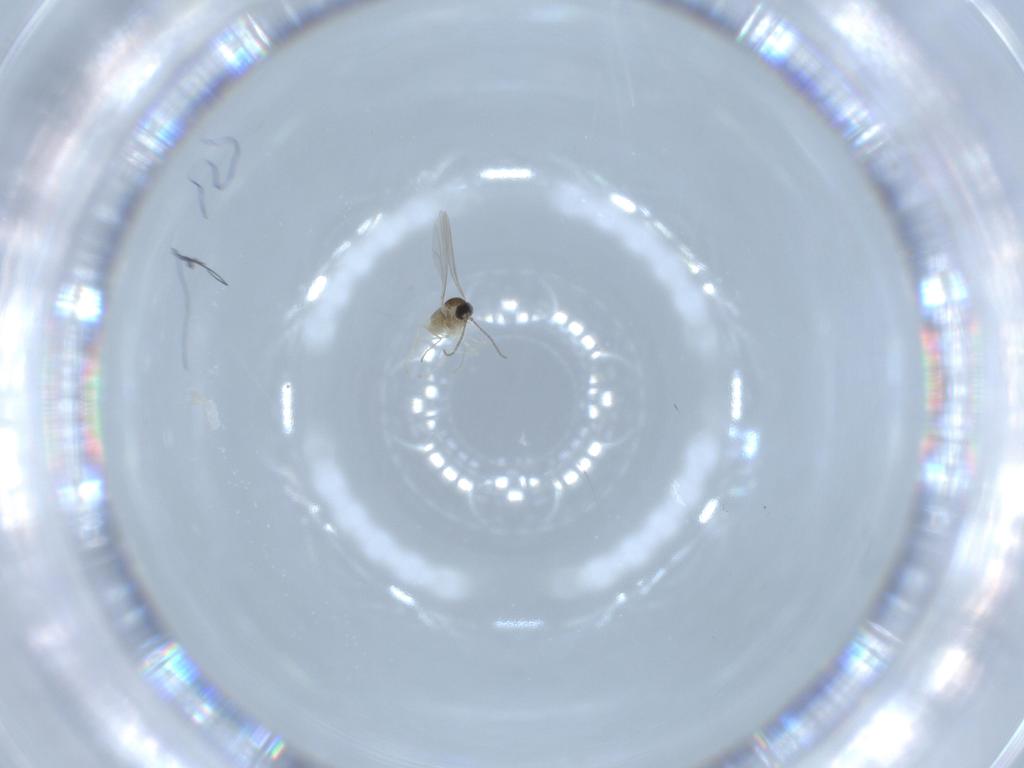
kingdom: Animalia
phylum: Arthropoda
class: Insecta
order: Diptera
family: Cecidomyiidae
